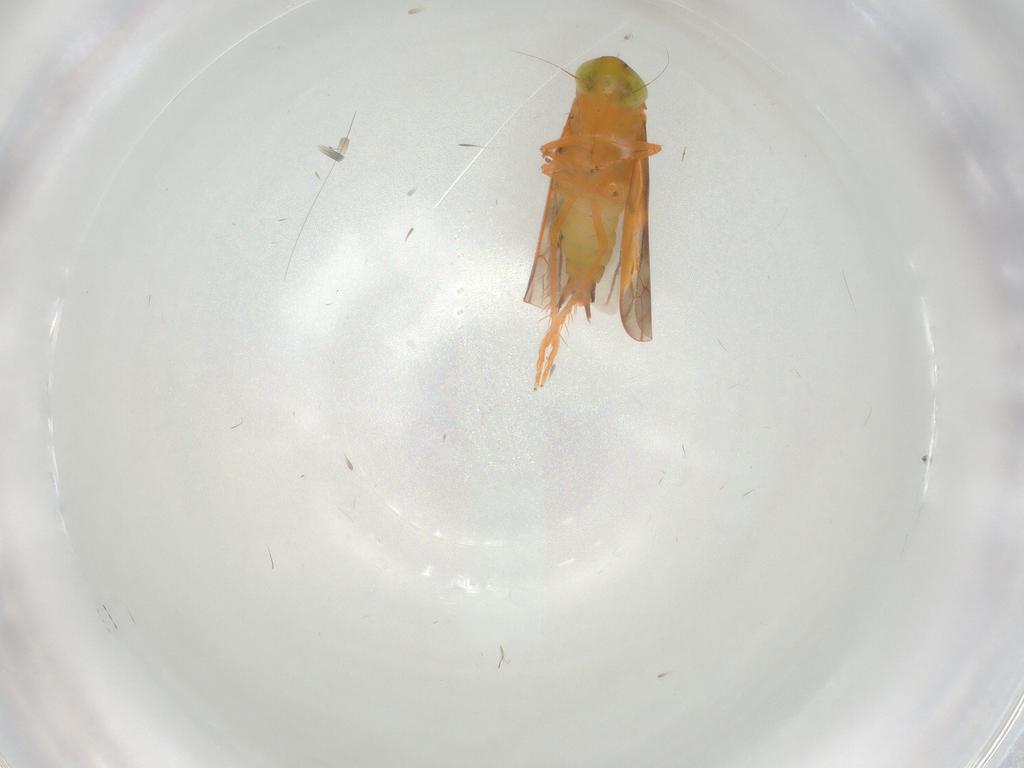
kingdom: Animalia
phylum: Arthropoda
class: Insecta
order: Hemiptera
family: Cicadellidae
